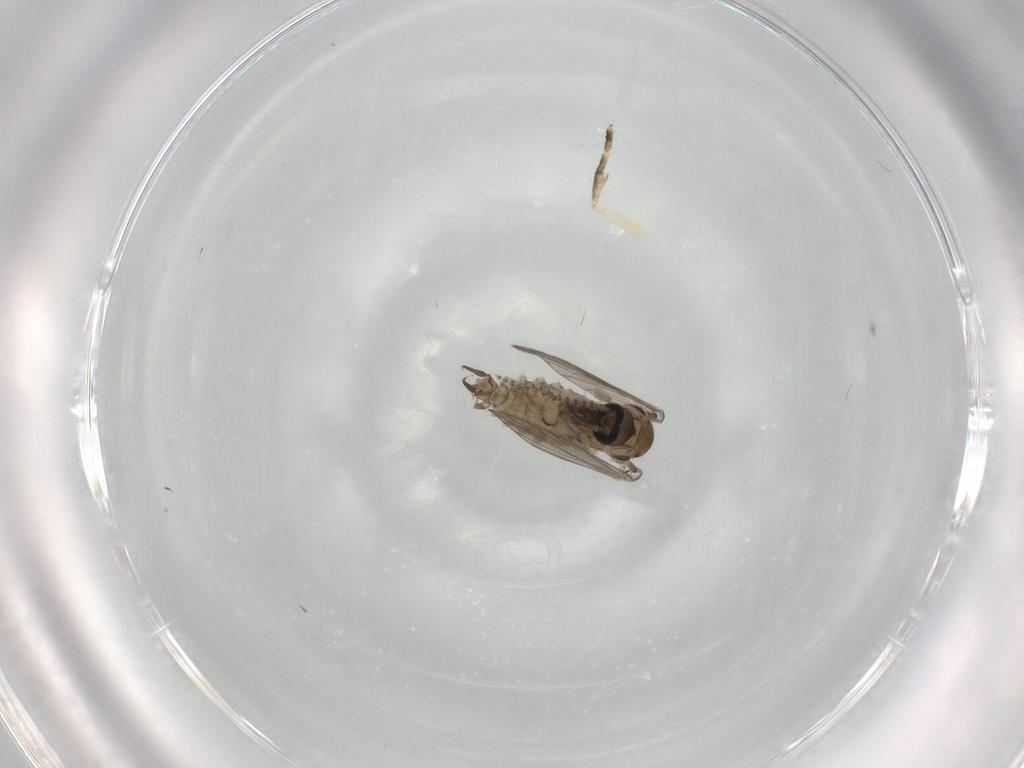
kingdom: Animalia
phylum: Arthropoda
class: Insecta
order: Diptera
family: Psychodidae
